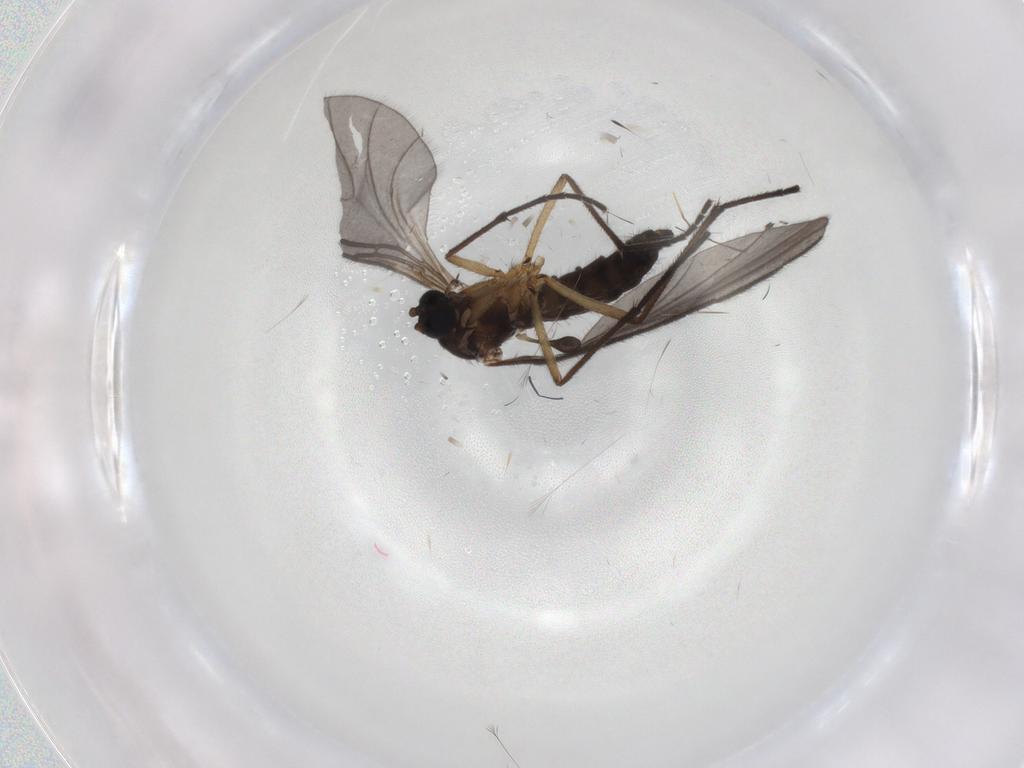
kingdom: Animalia
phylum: Arthropoda
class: Insecta
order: Diptera
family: Sciaridae
